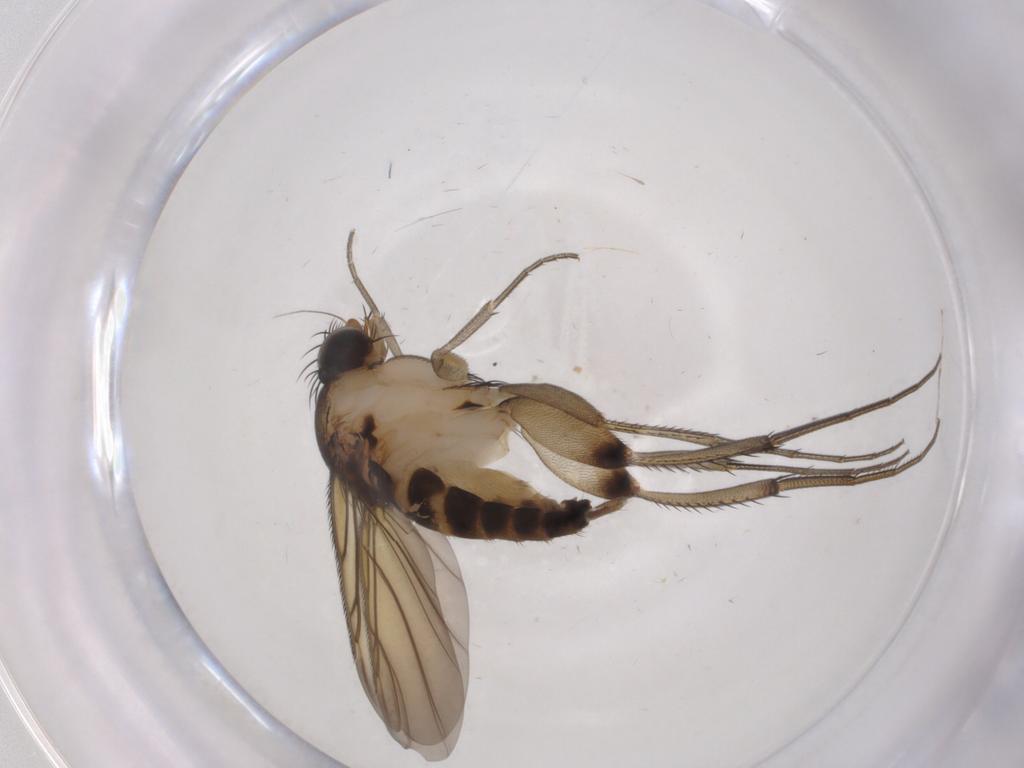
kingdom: Animalia
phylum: Arthropoda
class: Insecta
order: Diptera
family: Phoridae
